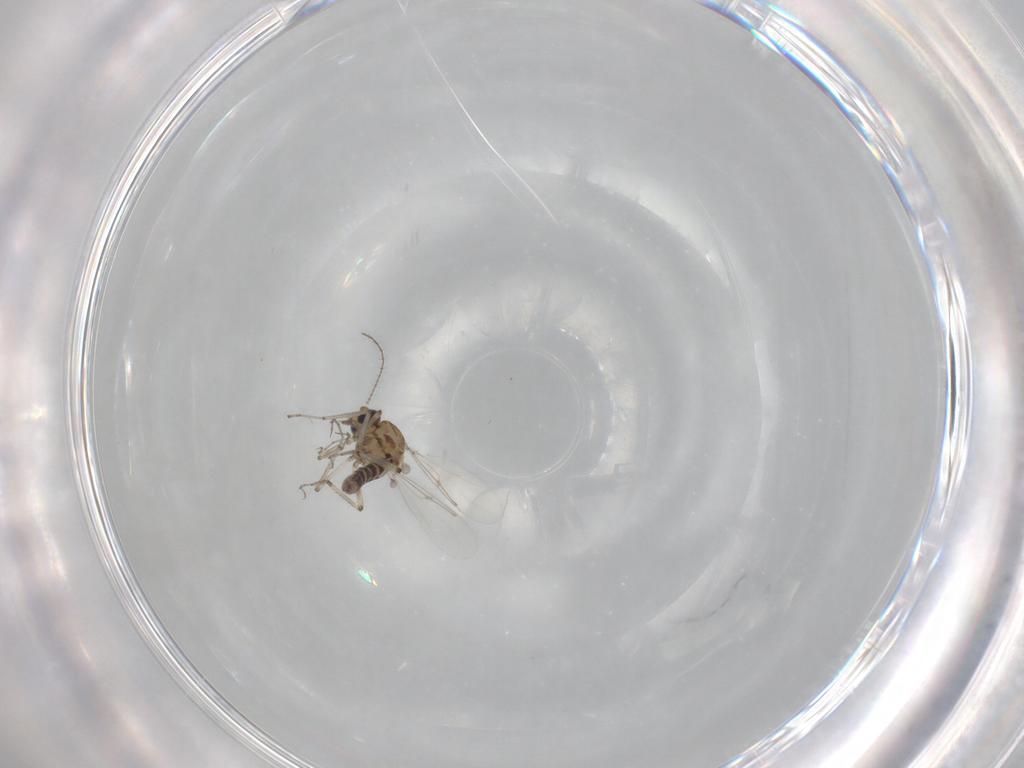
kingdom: Animalia
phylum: Arthropoda
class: Insecta
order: Diptera
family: Ceratopogonidae
